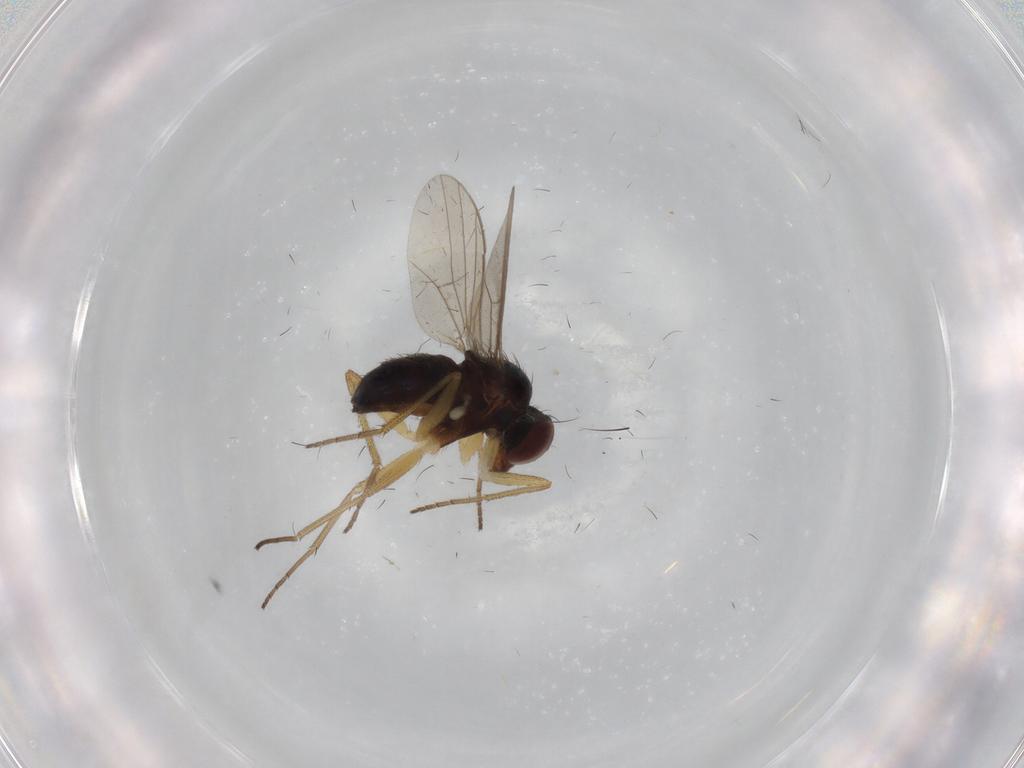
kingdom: Animalia
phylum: Arthropoda
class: Insecta
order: Diptera
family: Dolichopodidae
